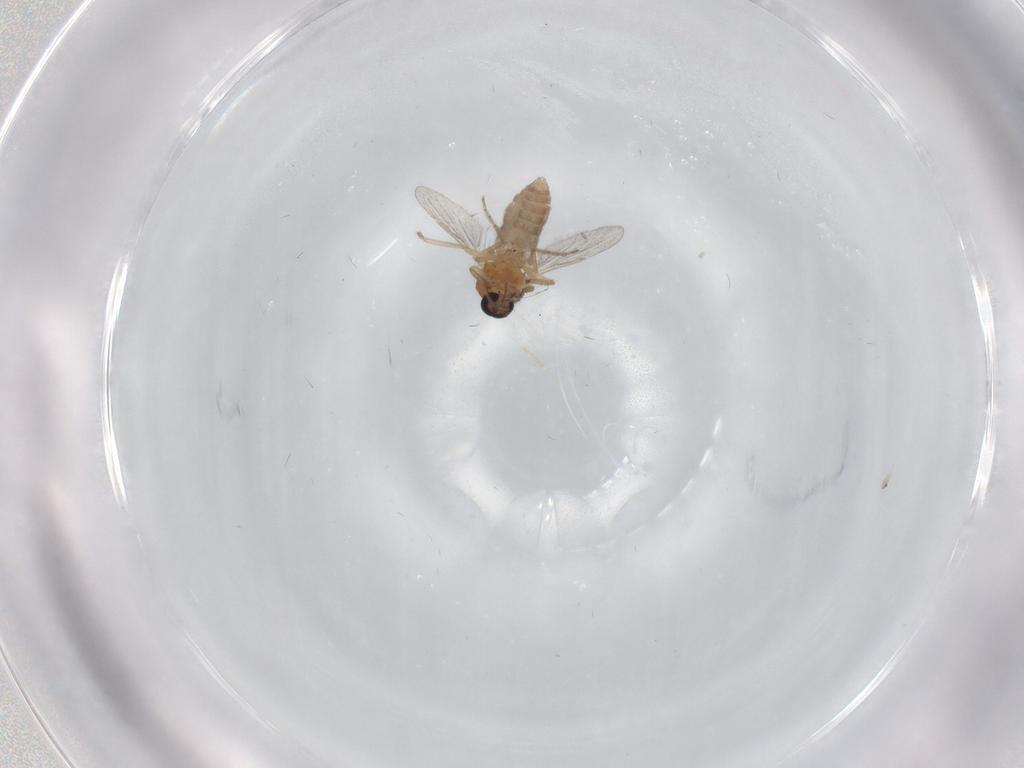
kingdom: Animalia
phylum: Arthropoda
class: Insecta
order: Diptera
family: Ceratopogonidae
